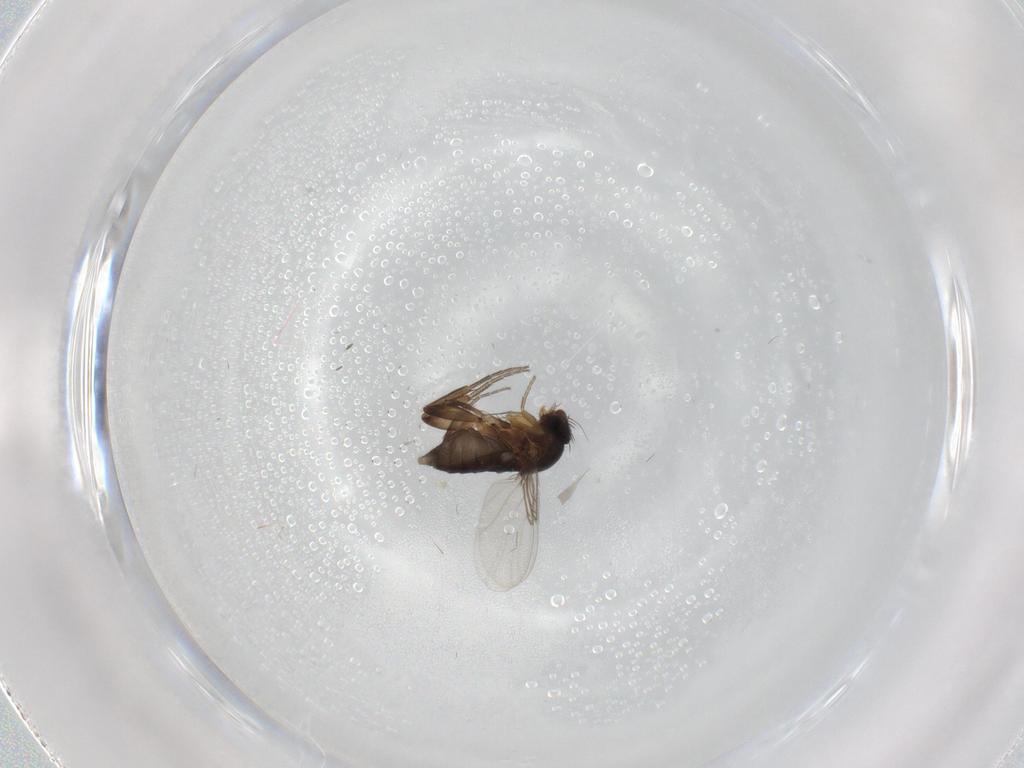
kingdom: Animalia
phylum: Arthropoda
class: Insecta
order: Diptera
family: Phoridae
